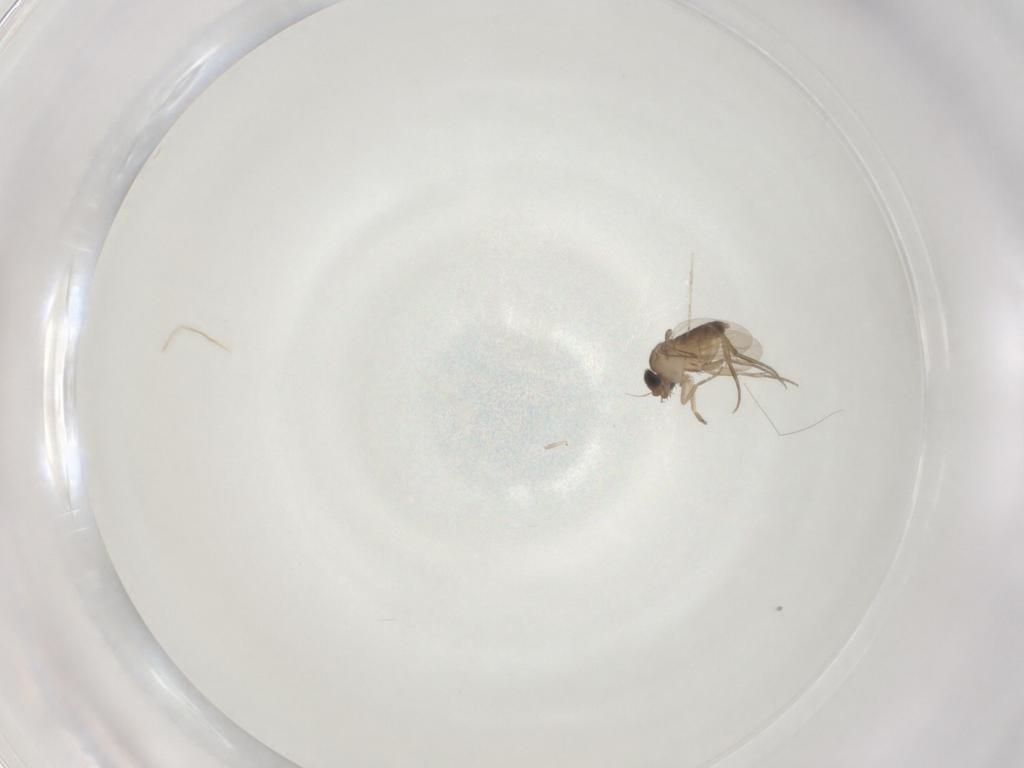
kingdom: Animalia
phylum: Arthropoda
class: Insecta
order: Diptera
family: Phoridae
